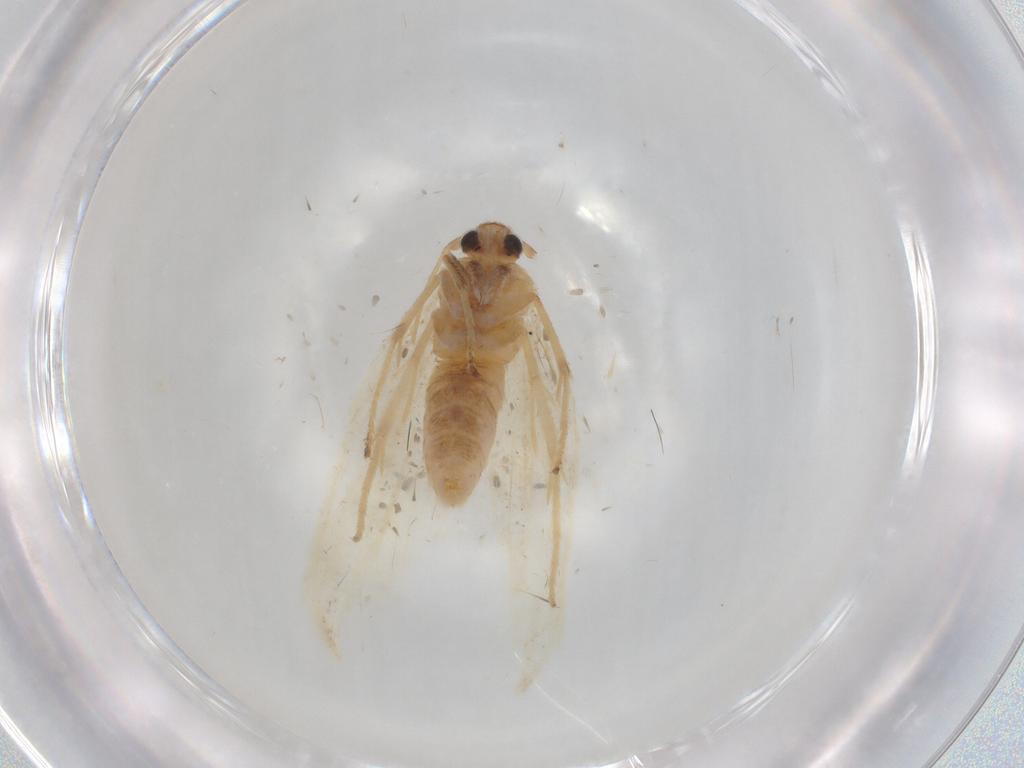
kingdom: Animalia
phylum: Arthropoda
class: Insecta
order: Lepidoptera
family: Gelechiidae
